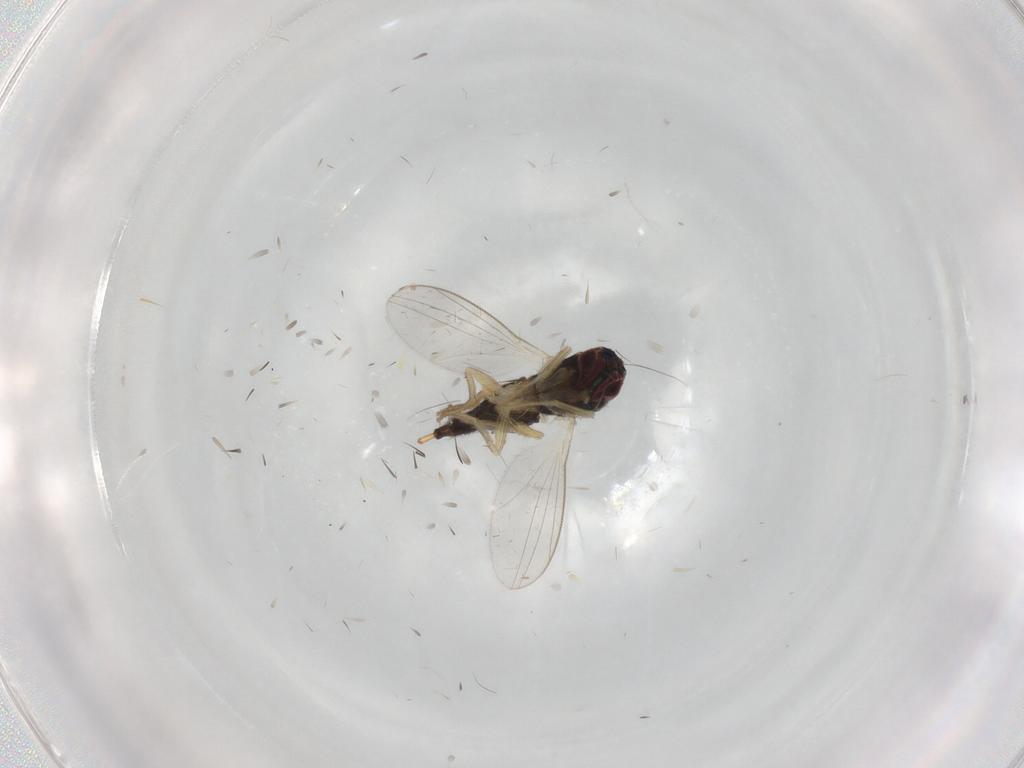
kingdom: Animalia
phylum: Arthropoda
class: Insecta
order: Diptera
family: Dolichopodidae
